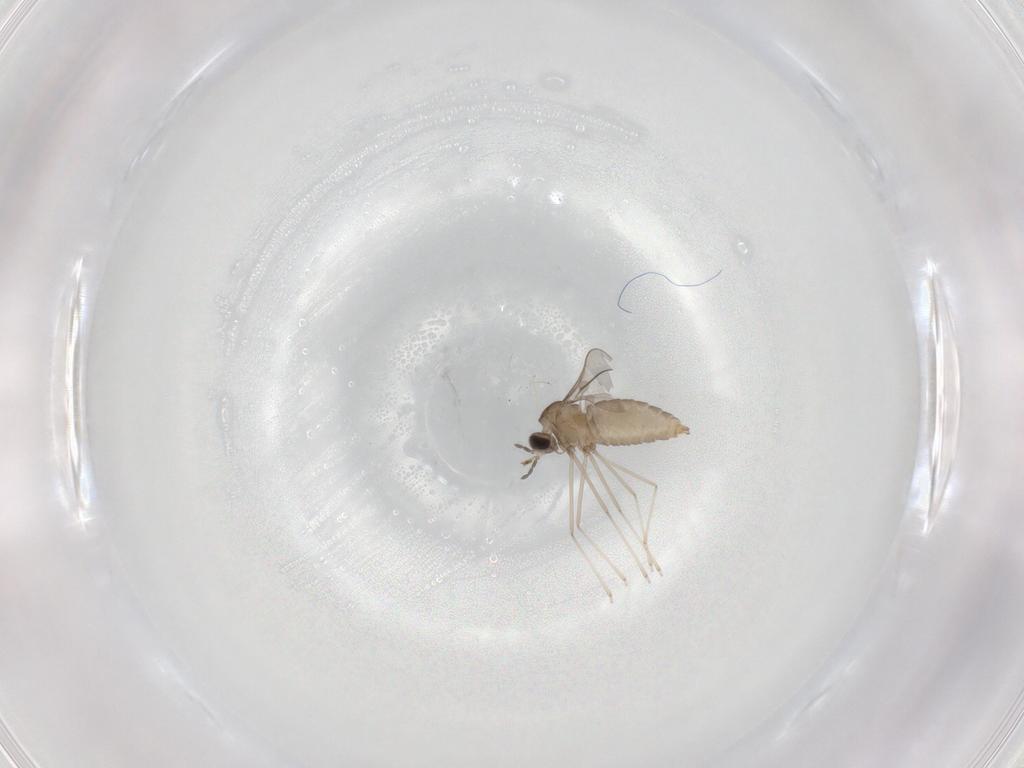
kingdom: Animalia
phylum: Arthropoda
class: Insecta
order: Diptera
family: Cecidomyiidae
